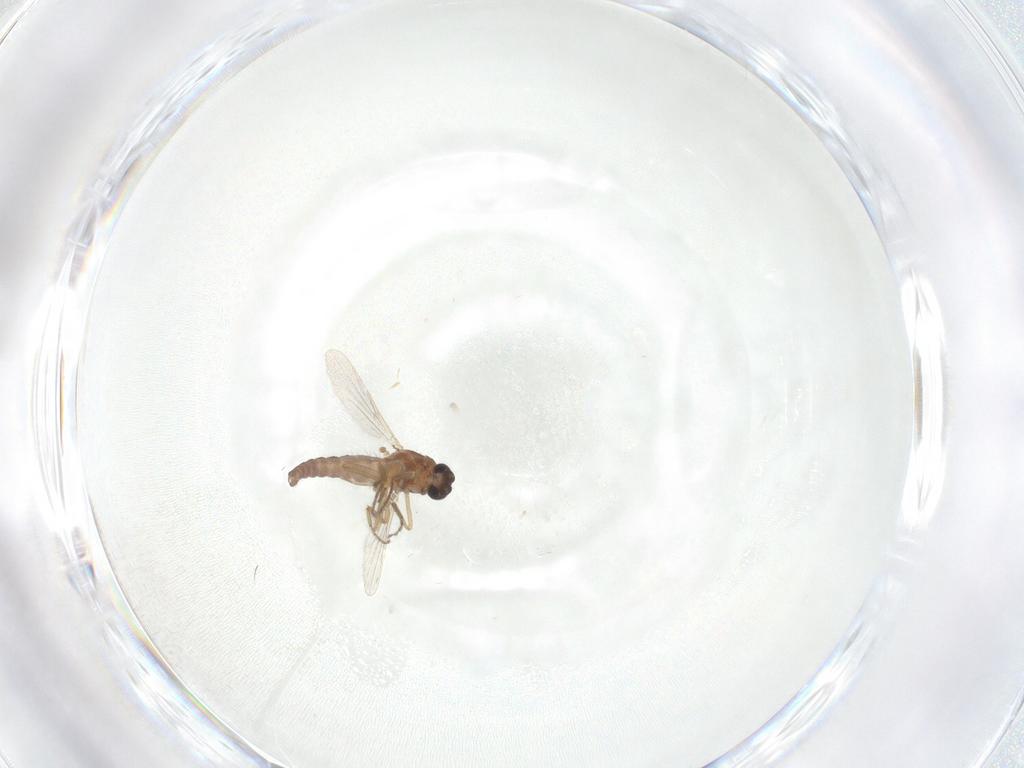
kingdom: Animalia
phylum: Arthropoda
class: Insecta
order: Diptera
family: Ceratopogonidae
